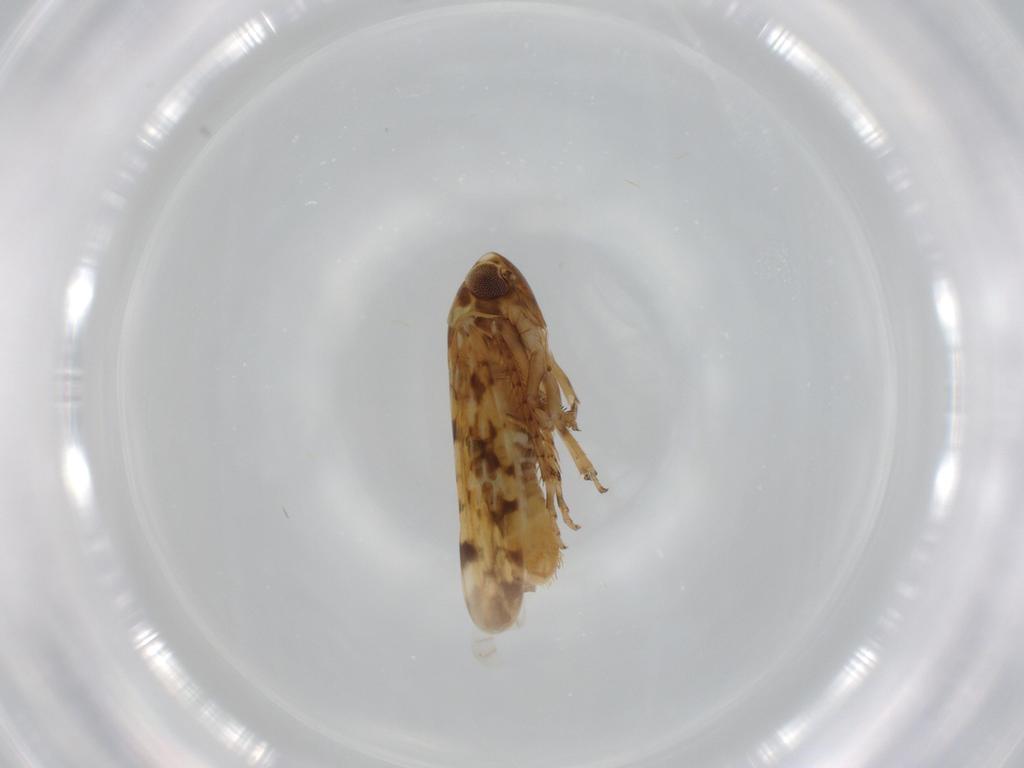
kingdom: Animalia
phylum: Arthropoda
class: Insecta
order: Hemiptera
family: Cicadellidae
